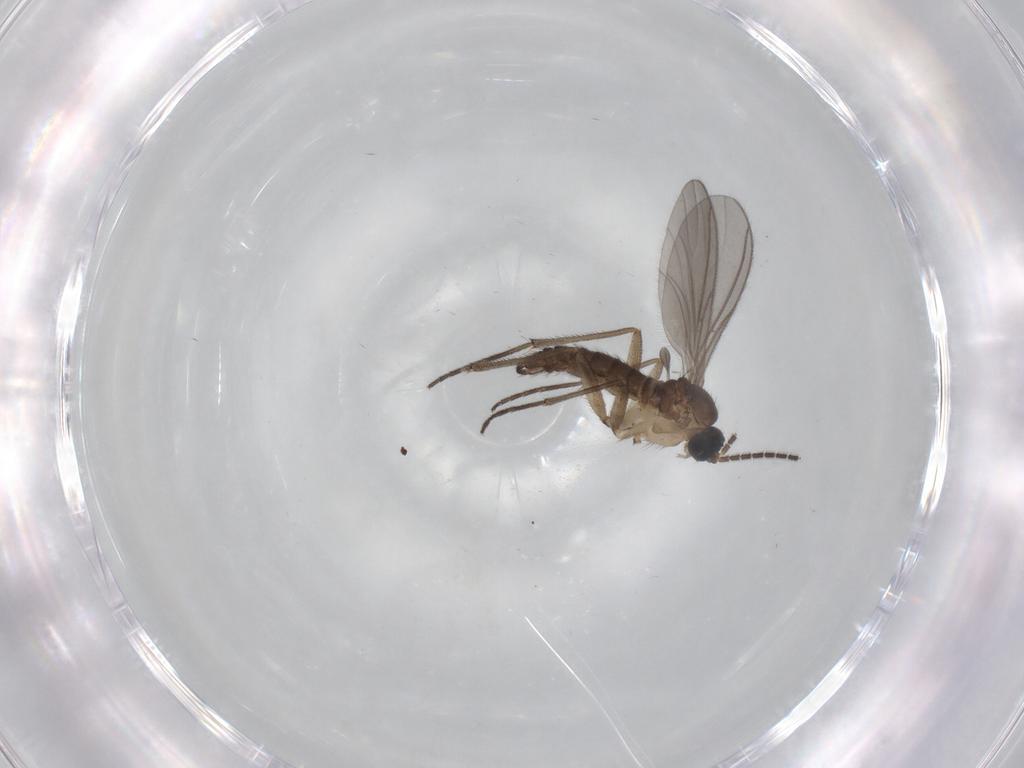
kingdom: Animalia
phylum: Arthropoda
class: Insecta
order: Diptera
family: Sciaridae
